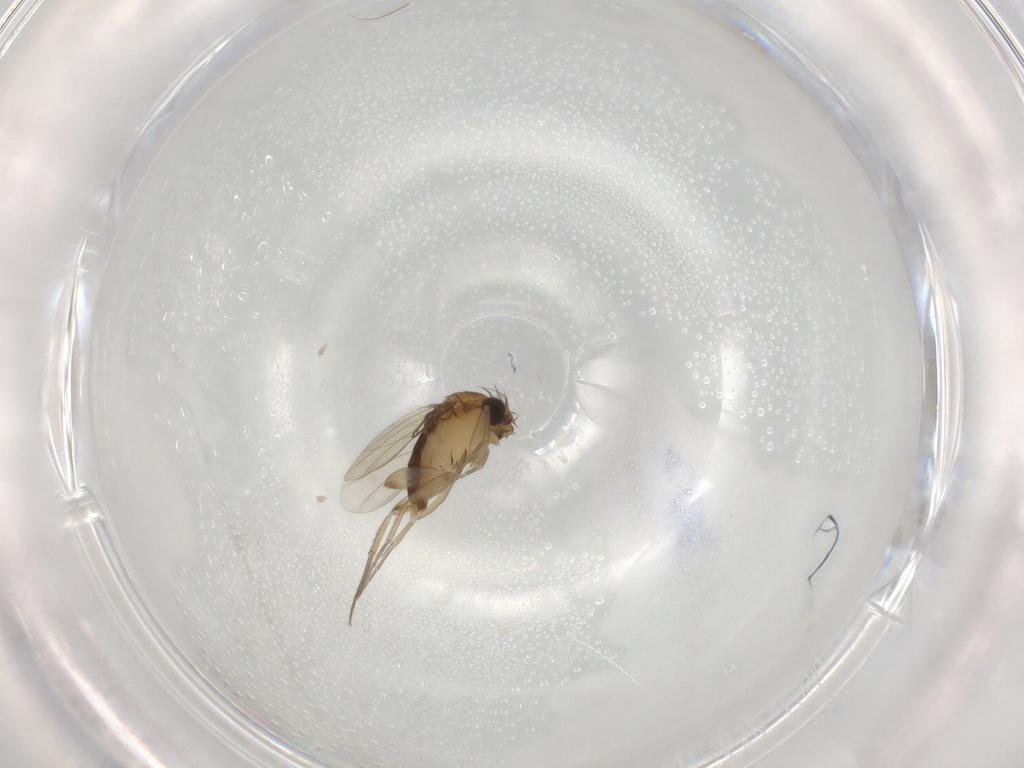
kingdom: Animalia
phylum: Arthropoda
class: Insecta
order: Diptera
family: Phoridae
